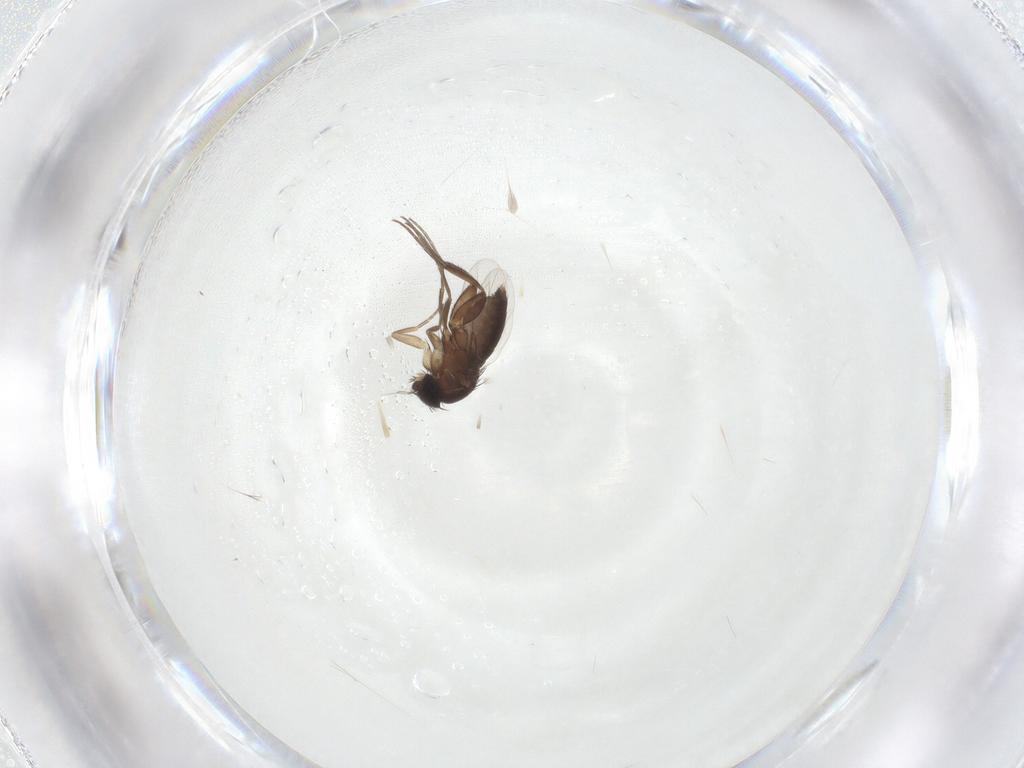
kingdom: Animalia
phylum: Arthropoda
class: Insecta
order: Diptera
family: Phoridae
